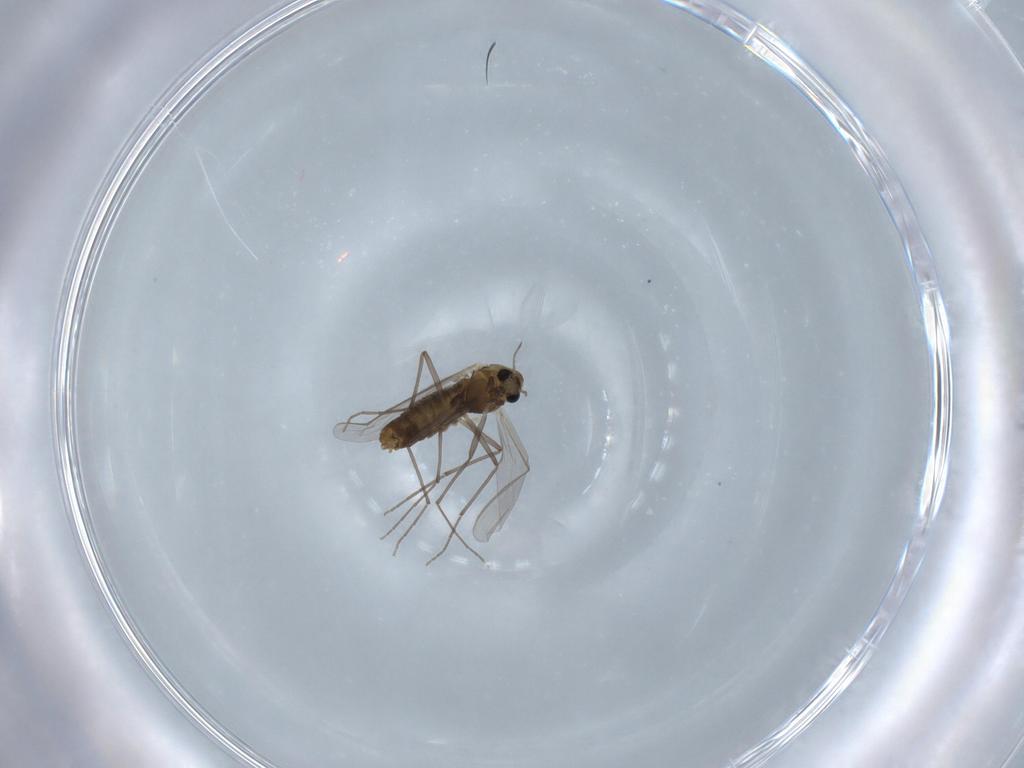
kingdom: Animalia
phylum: Arthropoda
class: Insecta
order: Diptera
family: Chironomidae
